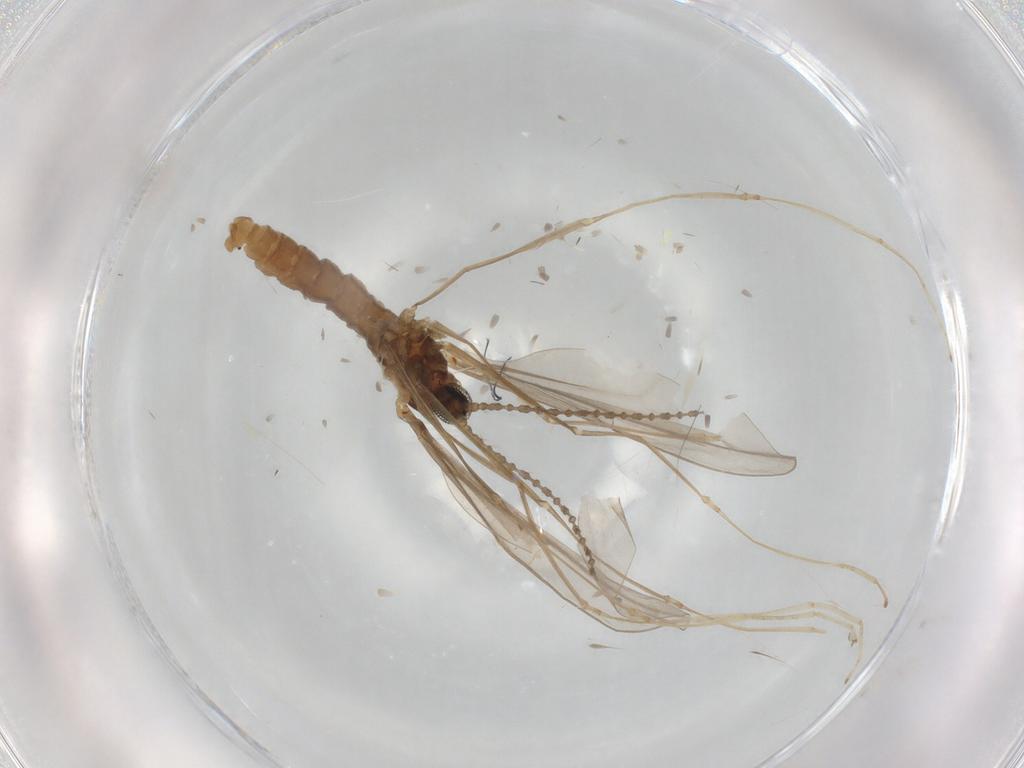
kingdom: Animalia
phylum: Arthropoda
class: Insecta
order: Diptera
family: Cecidomyiidae
